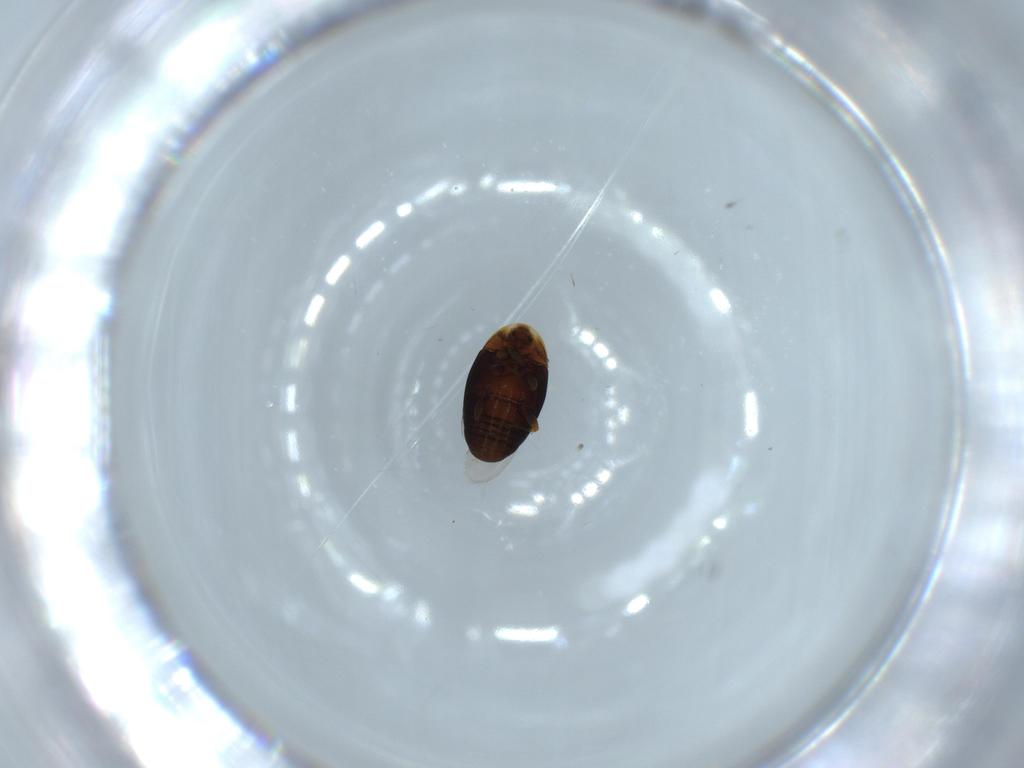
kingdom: Animalia
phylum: Arthropoda
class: Insecta
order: Coleoptera
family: Corylophidae
